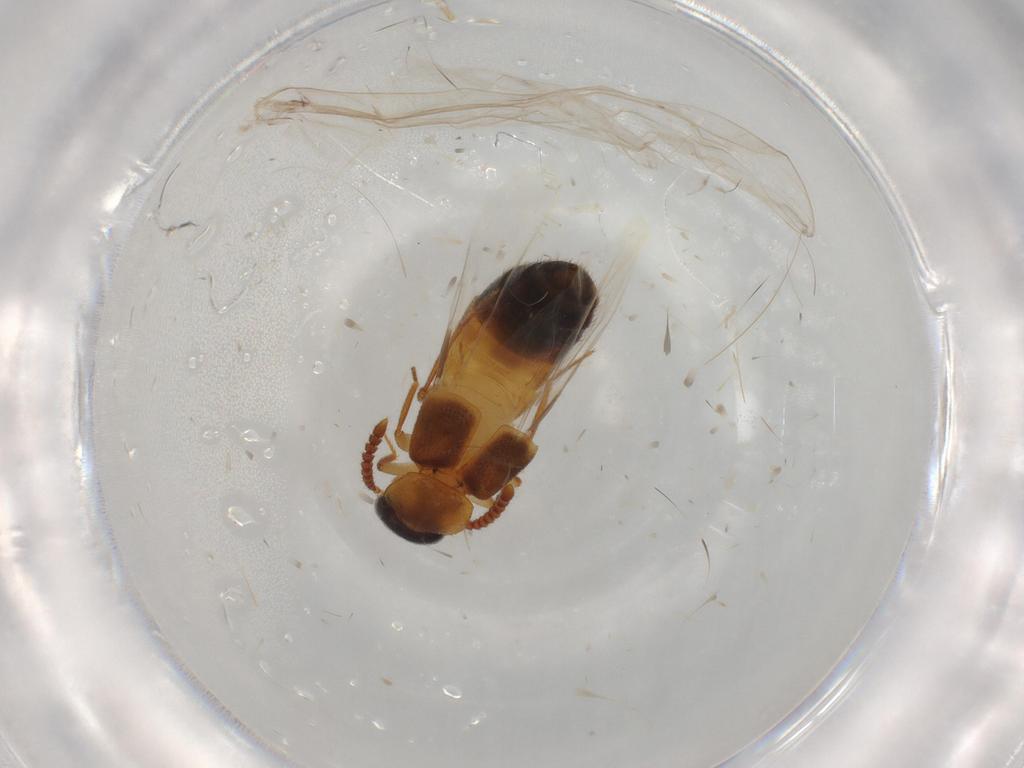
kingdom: Animalia
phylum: Arthropoda
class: Insecta
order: Coleoptera
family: Staphylinidae
